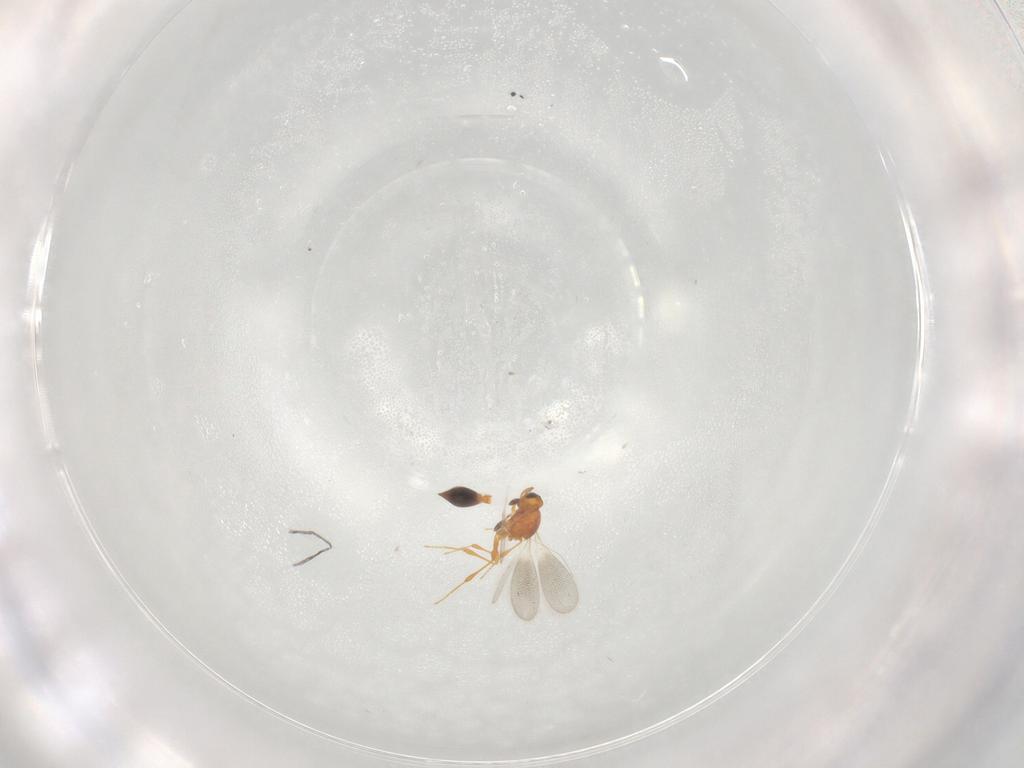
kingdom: Animalia
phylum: Arthropoda
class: Insecta
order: Hymenoptera
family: Platygastridae
